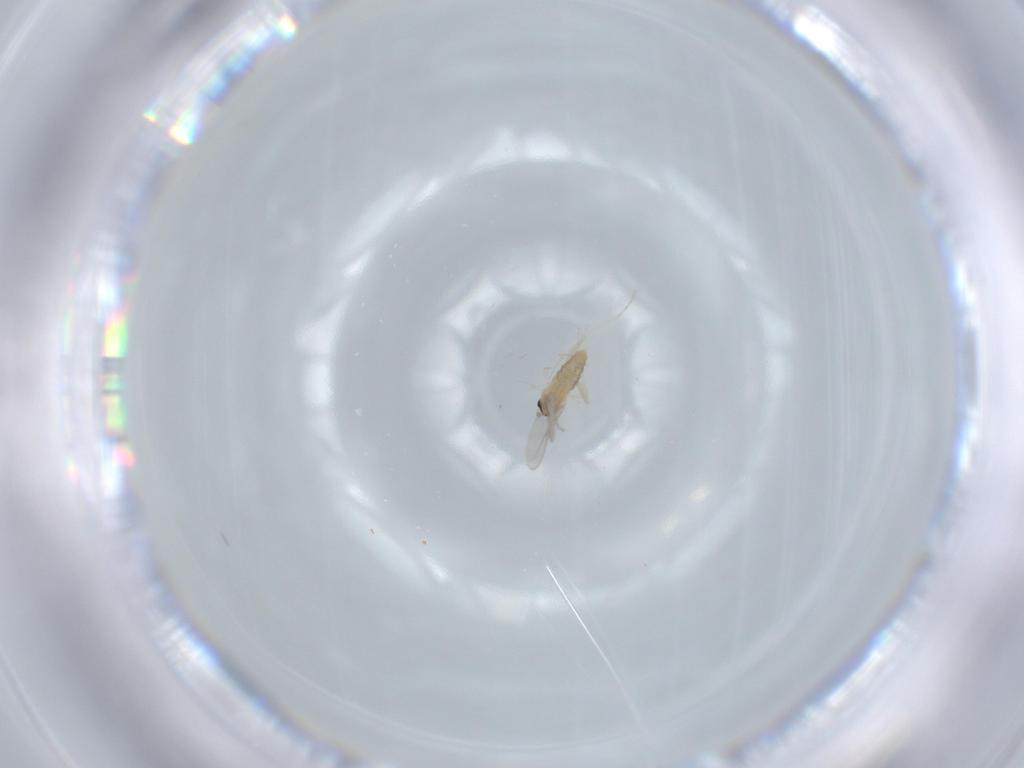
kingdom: Animalia
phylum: Arthropoda
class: Insecta
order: Diptera
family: Cecidomyiidae
